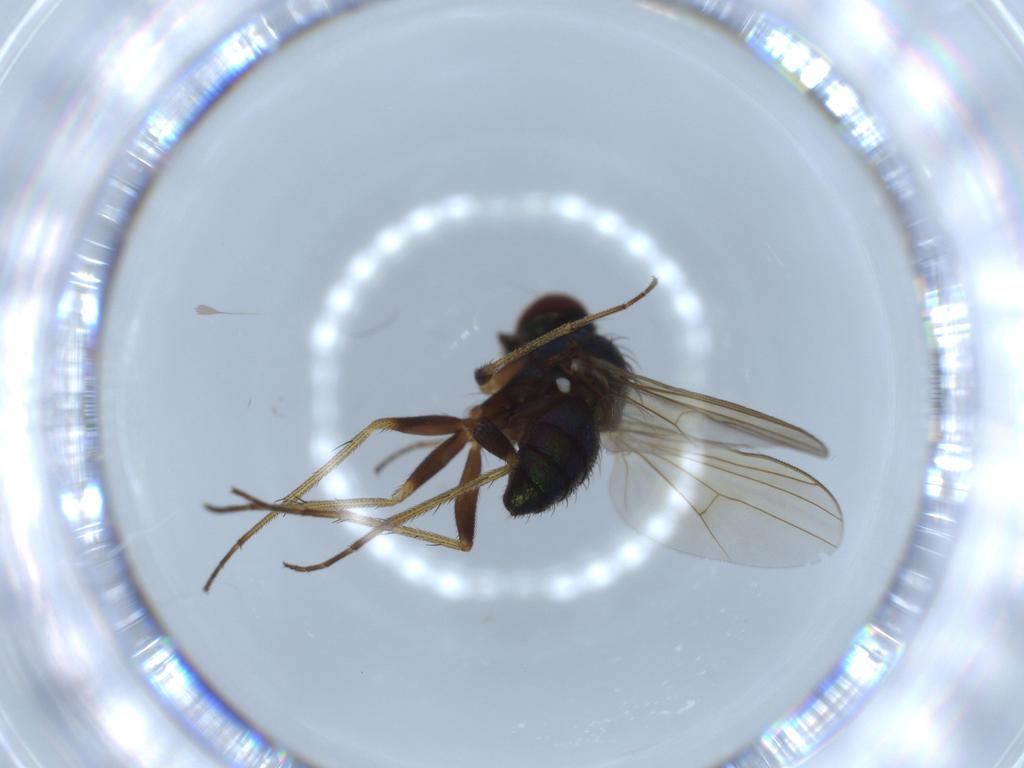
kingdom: Animalia
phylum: Arthropoda
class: Insecta
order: Diptera
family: Dolichopodidae
